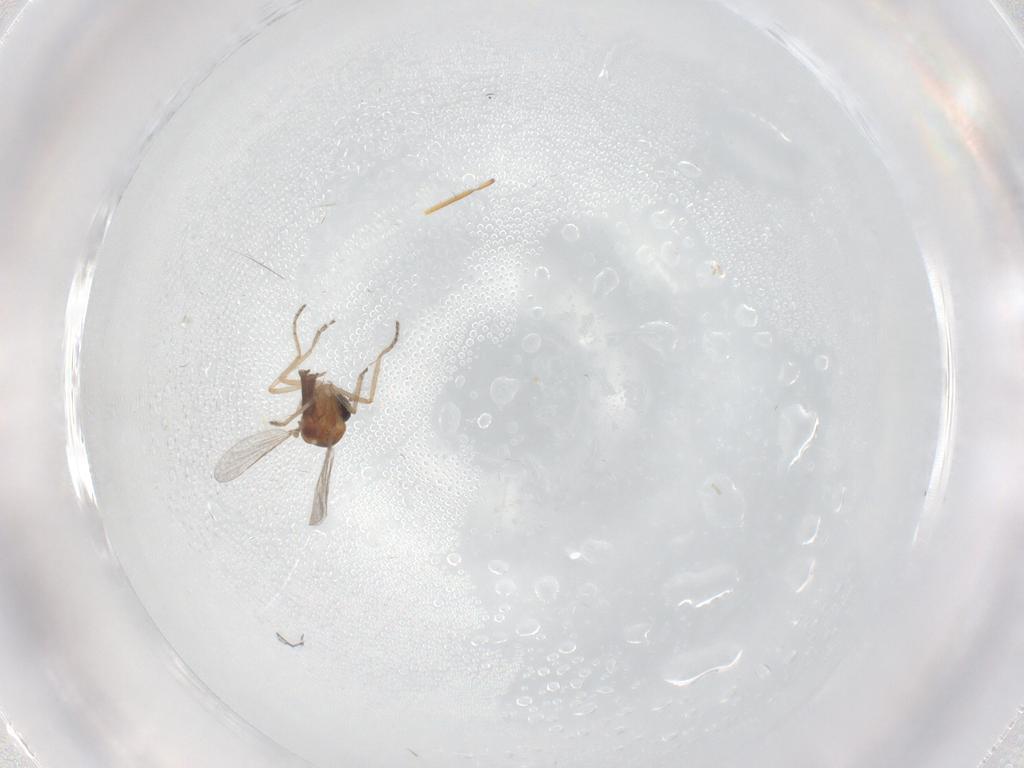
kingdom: Animalia
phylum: Arthropoda
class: Insecta
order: Diptera
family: Ceratopogonidae
